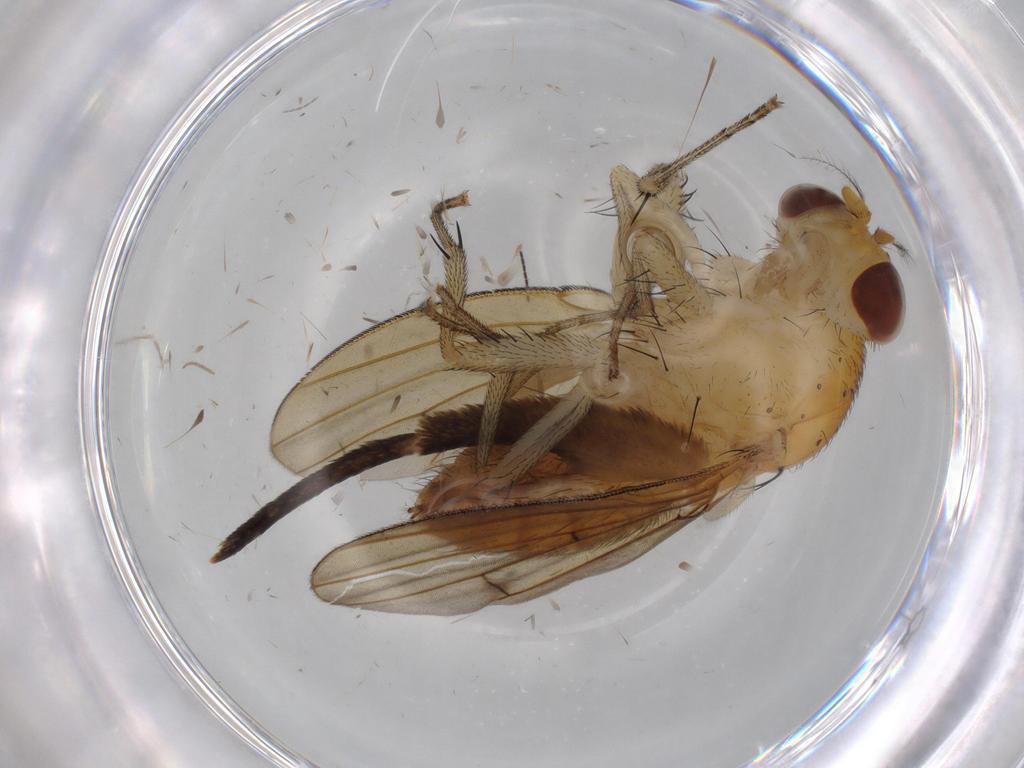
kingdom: Animalia
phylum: Arthropoda
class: Insecta
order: Diptera
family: Lauxaniidae
